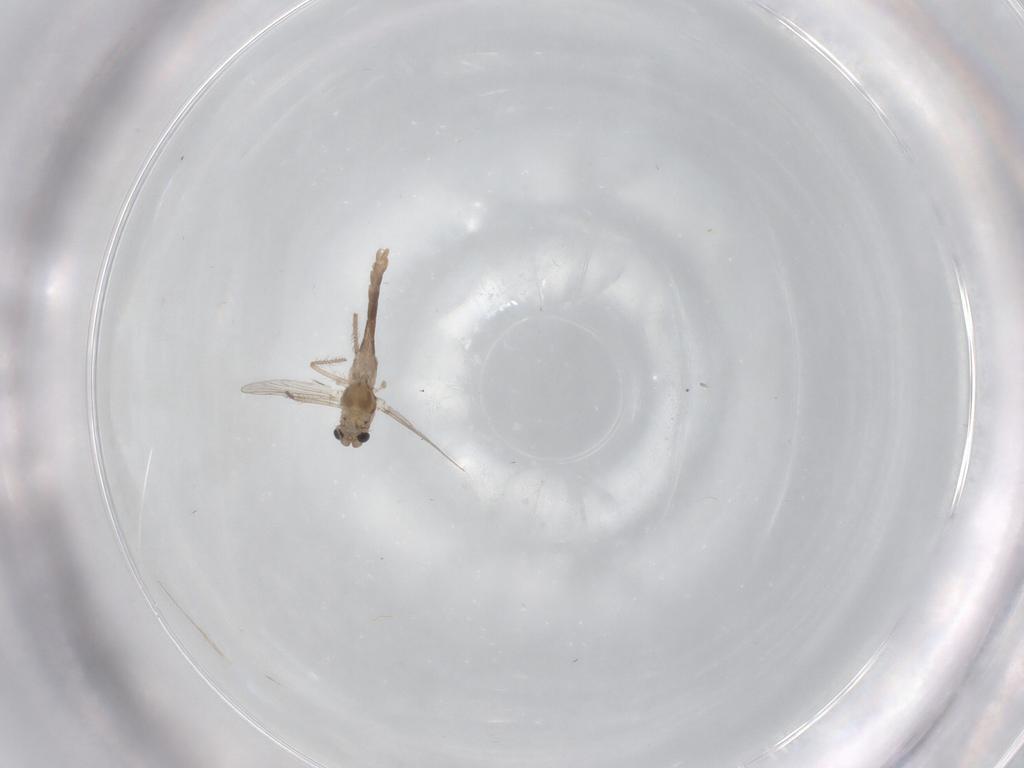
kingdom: Animalia
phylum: Arthropoda
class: Insecta
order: Diptera
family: Chironomidae
